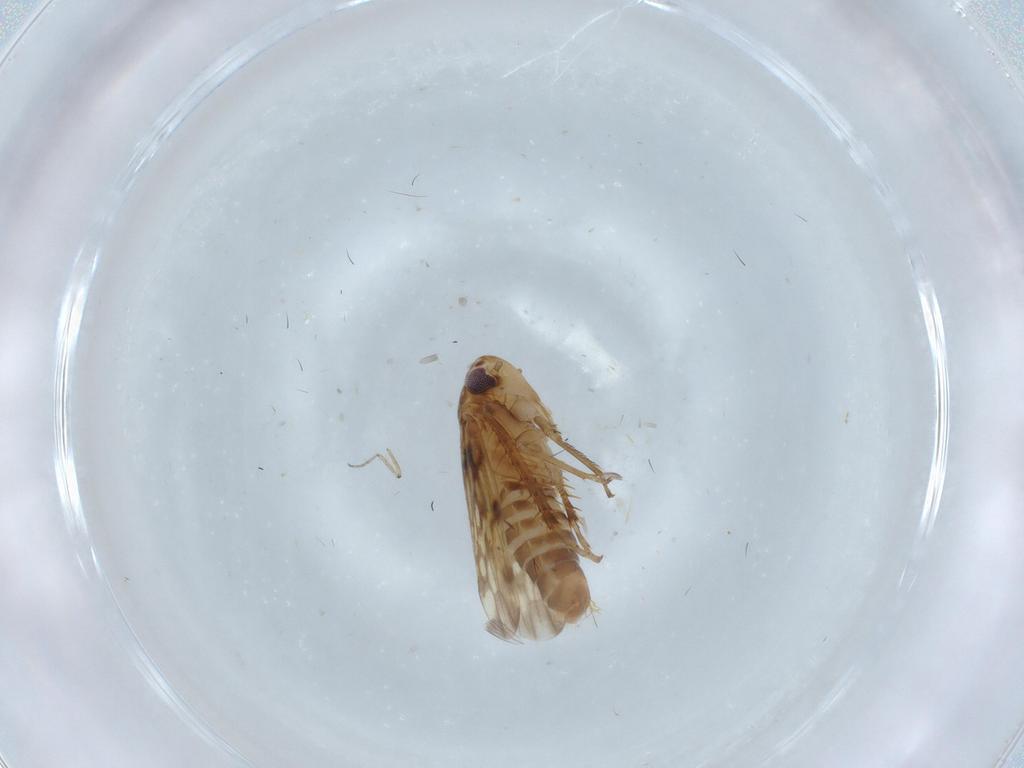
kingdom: Animalia
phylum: Arthropoda
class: Insecta
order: Hemiptera
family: Cicadellidae
